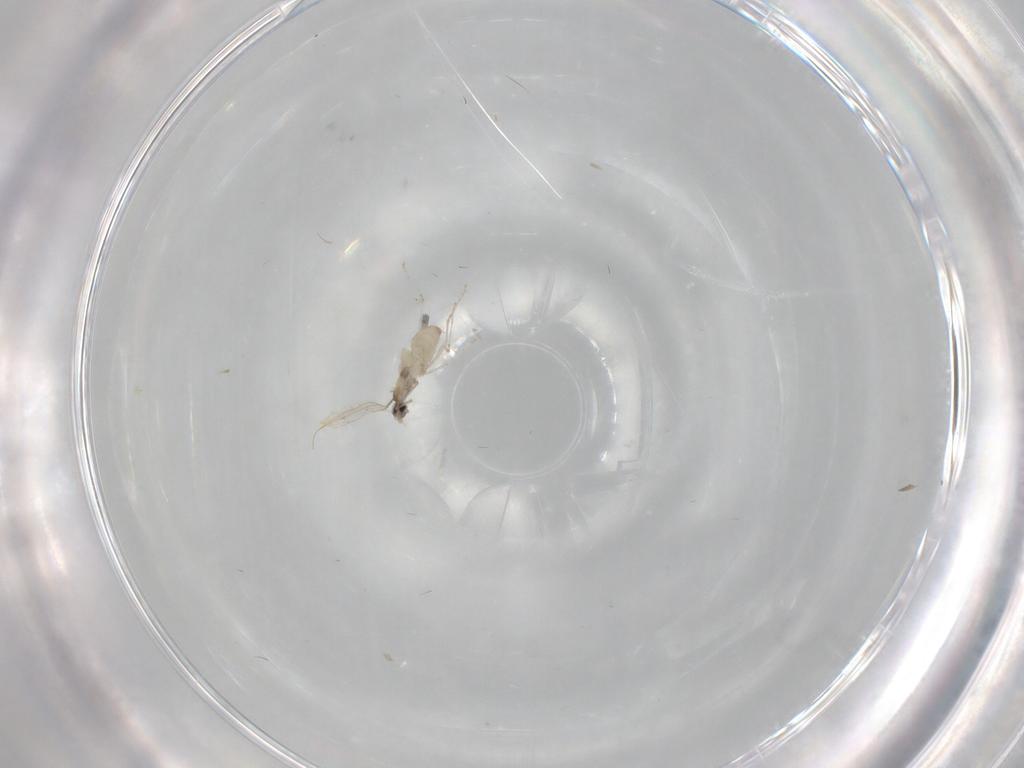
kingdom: Animalia
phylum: Arthropoda
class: Insecta
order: Diptera
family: Cecidomyiidae
